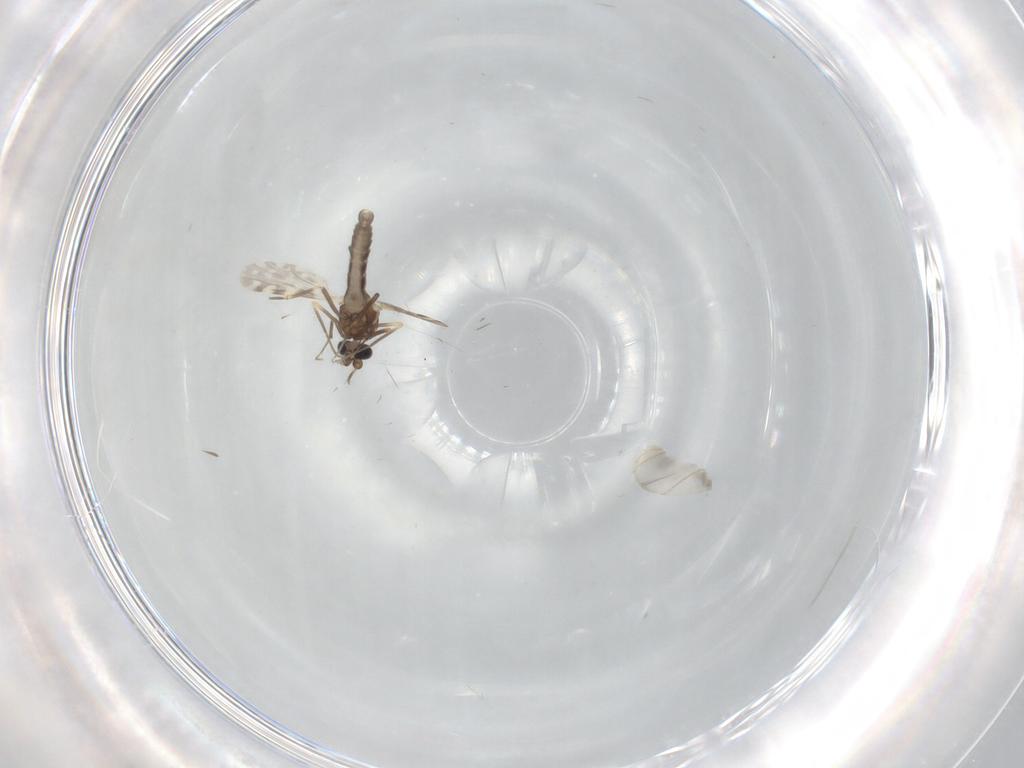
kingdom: Animalia
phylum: Arthropoda
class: Insecta
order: Diptera
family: Ceratopogonidae
